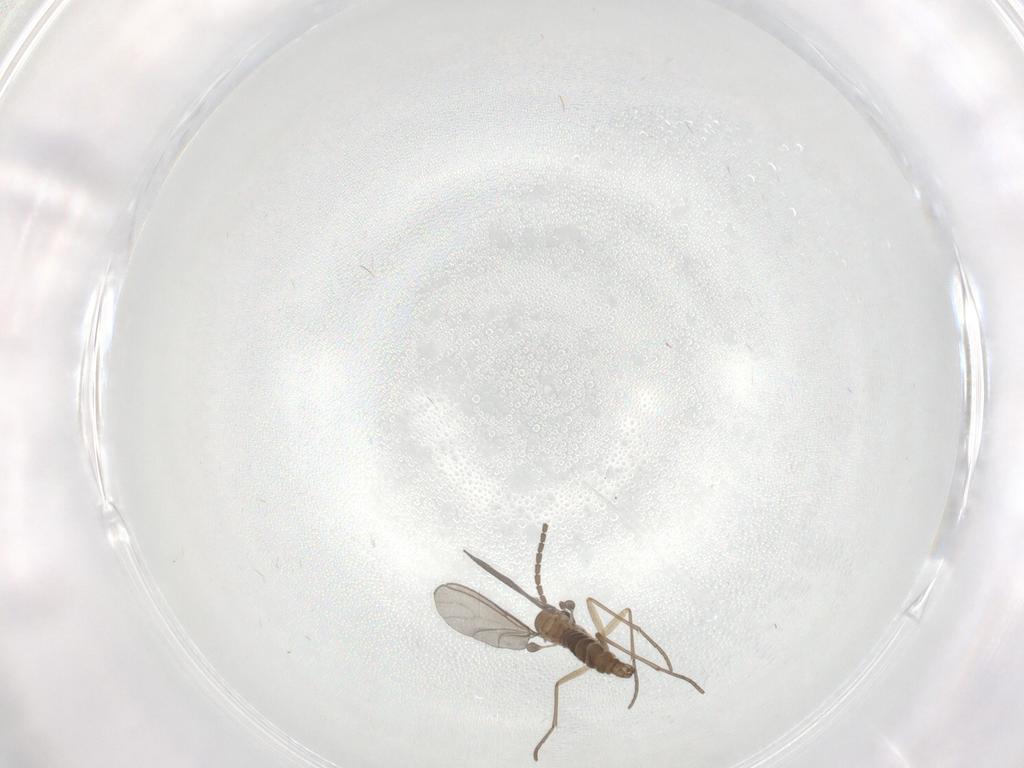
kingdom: Animalia
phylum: Arthropoda
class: Insecta
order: Diptera
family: Sciaridae
